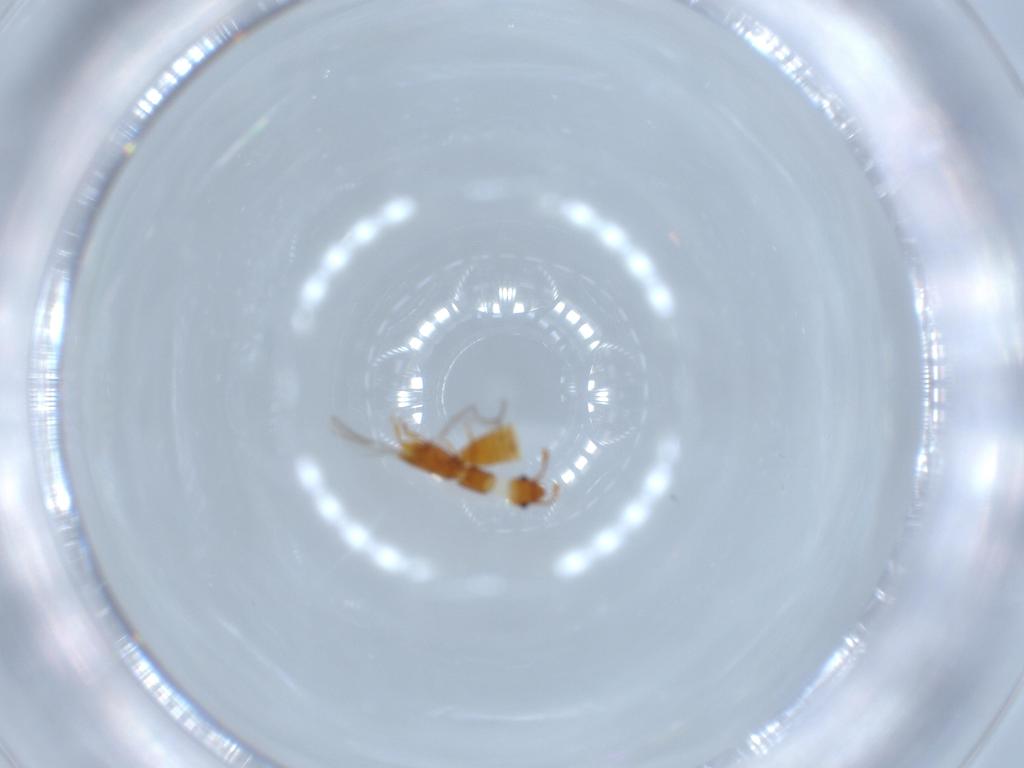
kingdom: Animalia
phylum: Arthropoda
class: Insecta
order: Coleoptera
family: Smicripidae
